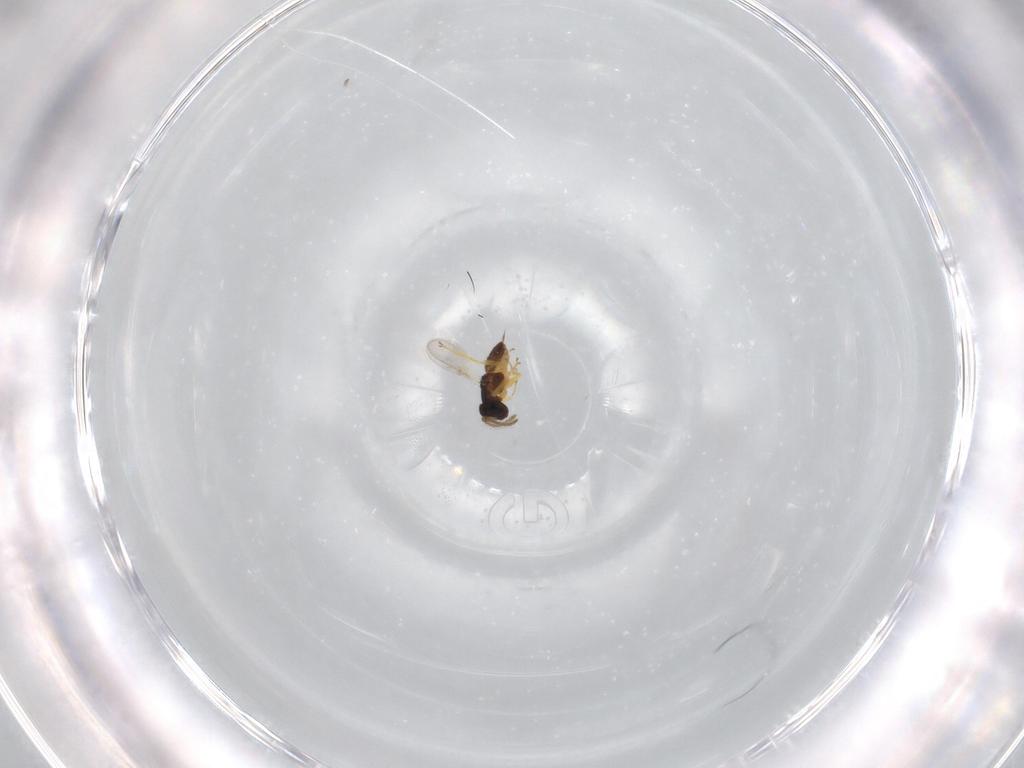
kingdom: Animalia
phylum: Arthropoda
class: Insecta
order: Hymenoptera
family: Encyrtidae
